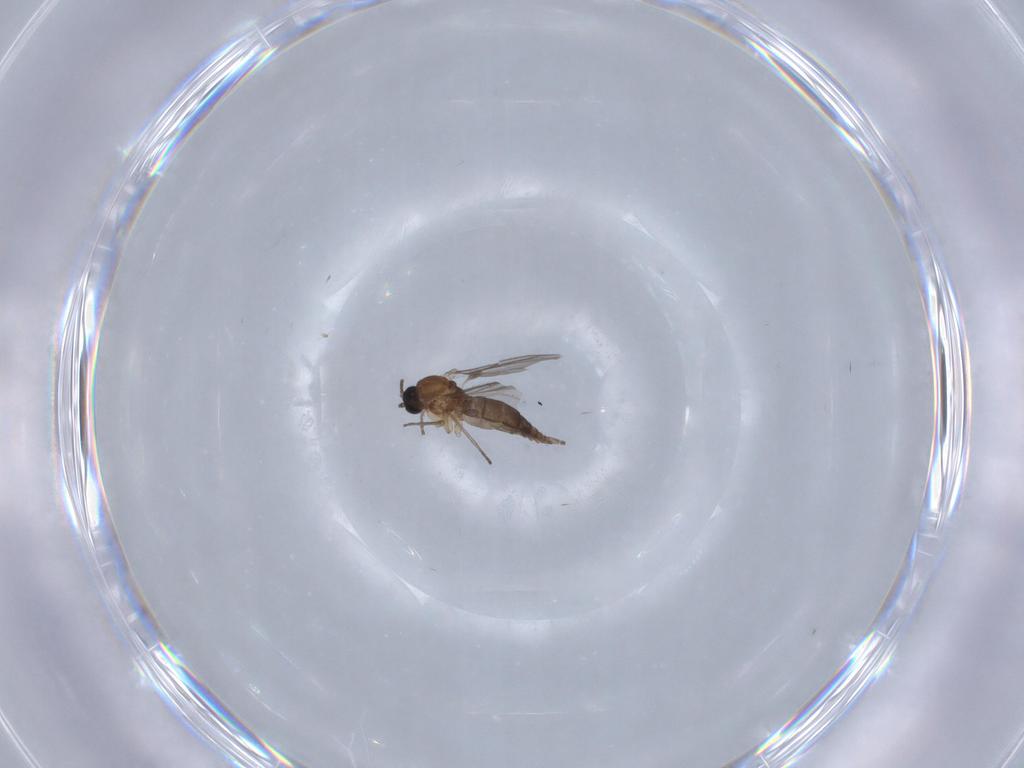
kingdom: Animalia
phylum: Arthropoda
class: Insecta
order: Diptera
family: Sciaridae
